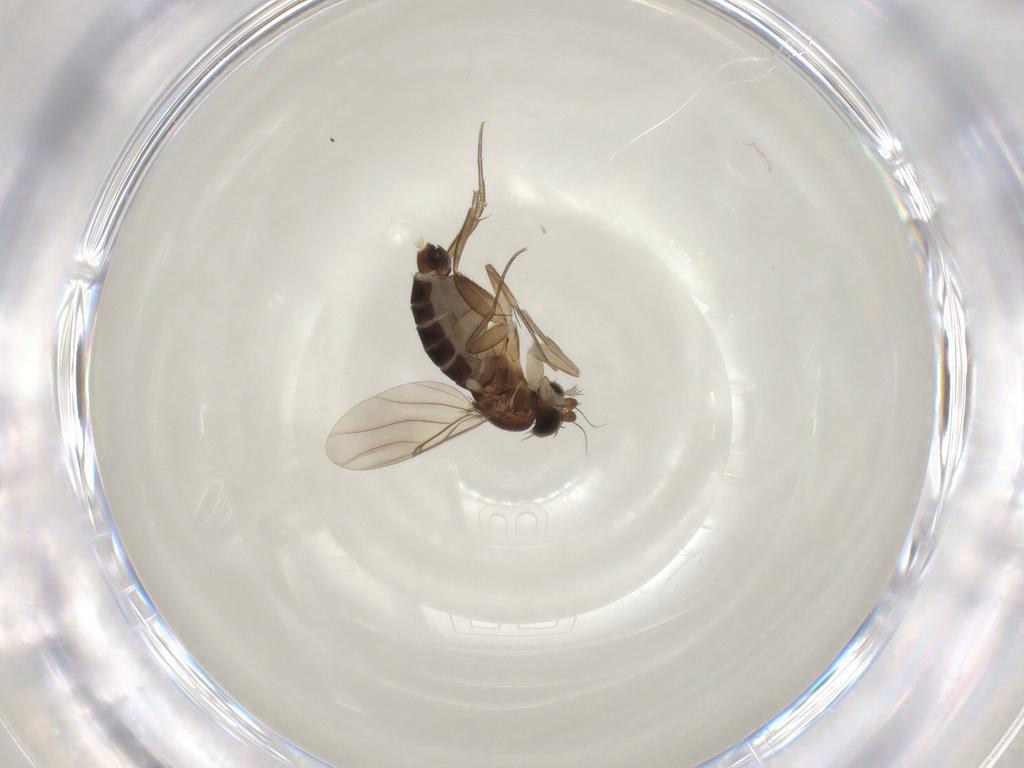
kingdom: Animalia
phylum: Arthropoda
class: Insecta
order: Diptera
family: Phoridae
